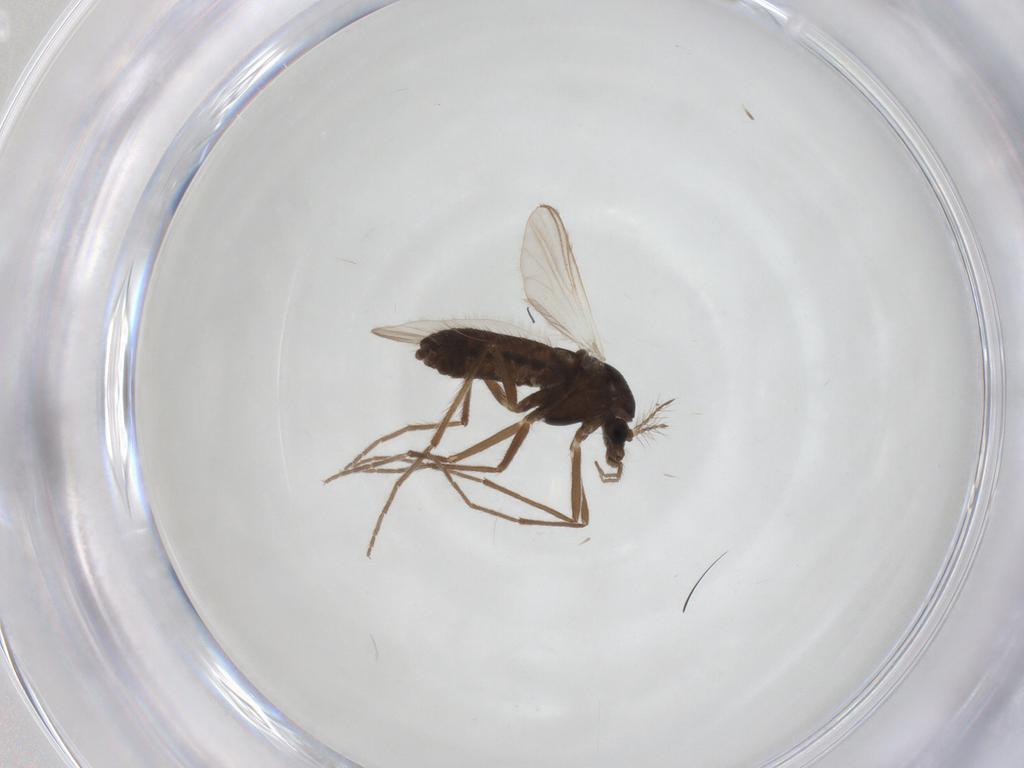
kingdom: Animalia
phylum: Arthropoda
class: Insecta
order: Diptera
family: Chironomidae
